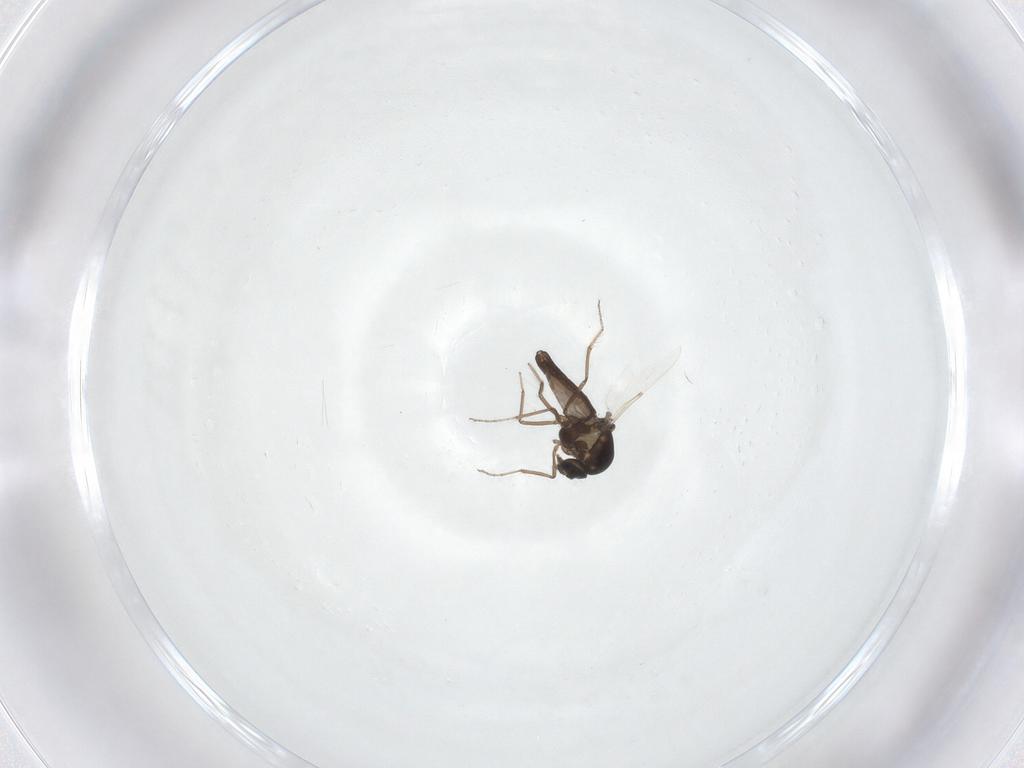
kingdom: Animalia
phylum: Arthropoda
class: Insecta
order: Diptera
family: Ceratopogonidae
